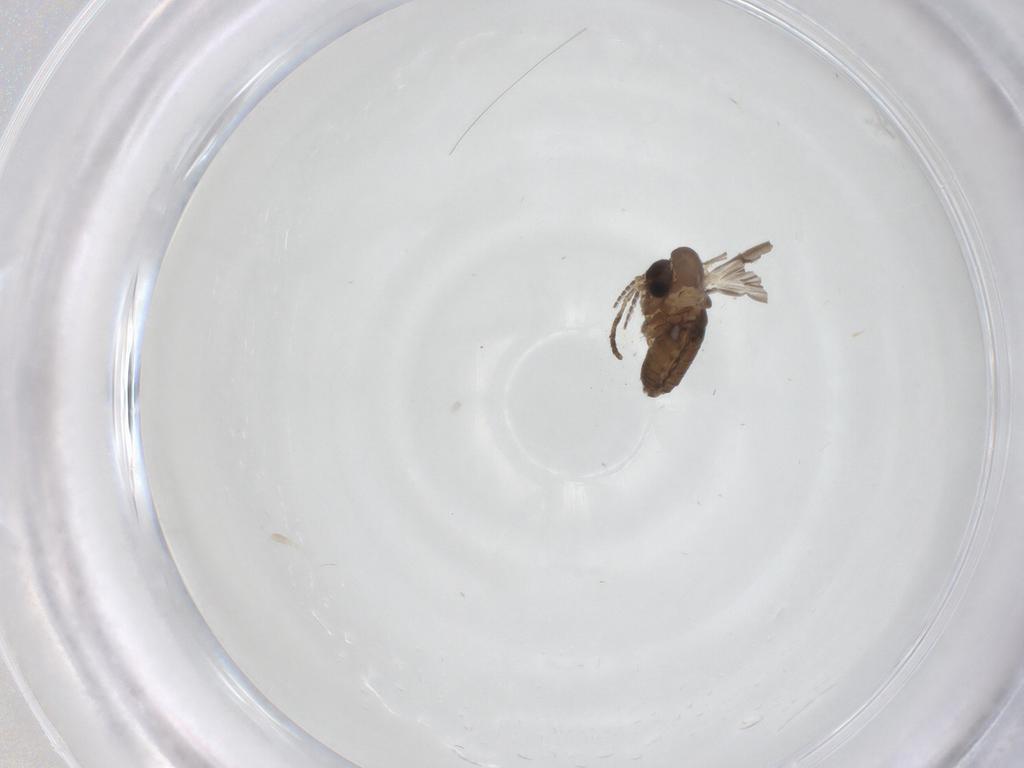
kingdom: Animalia
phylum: Arthropoda
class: Insecta
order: Diptera
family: Psychodidae
